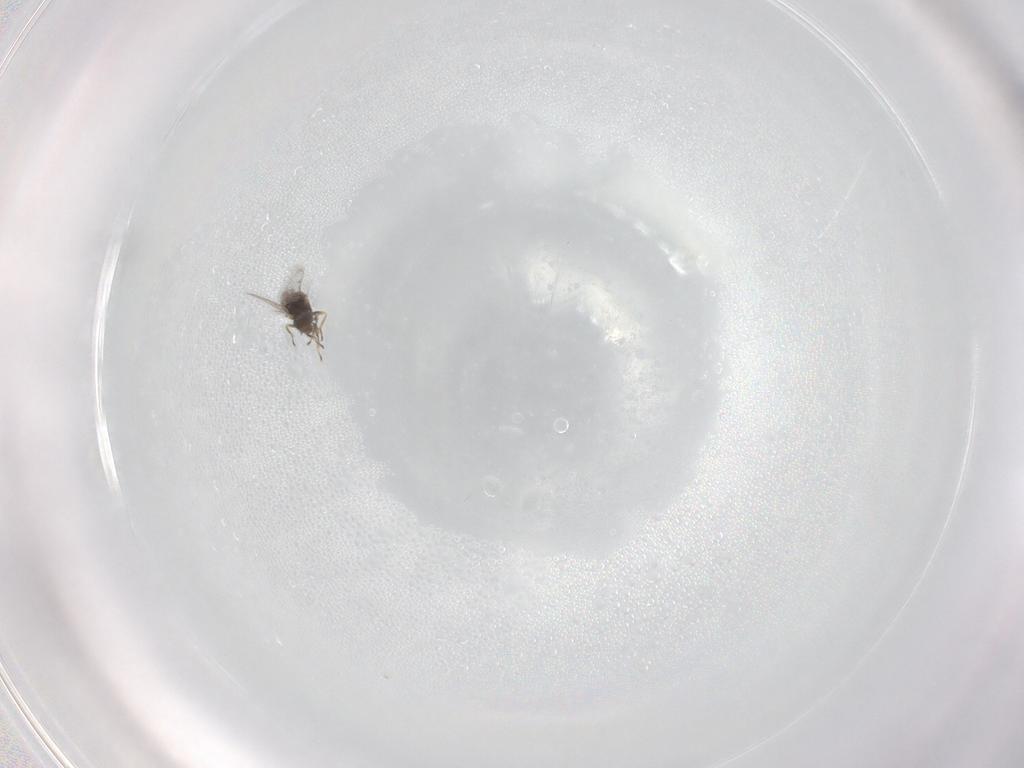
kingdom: Animalia
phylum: Arthropoda
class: Insecta
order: Hymenoptera
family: Eulophidae
